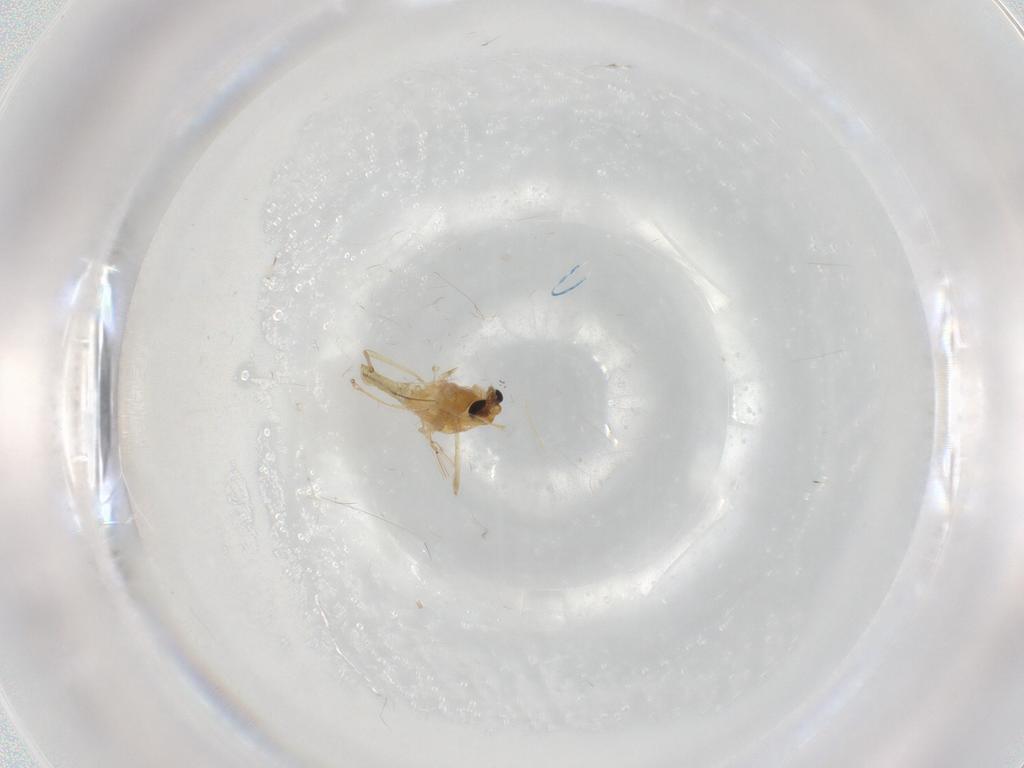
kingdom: Animalia
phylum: Arthropoda
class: Insecta
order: Diptera
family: Chironomidae
